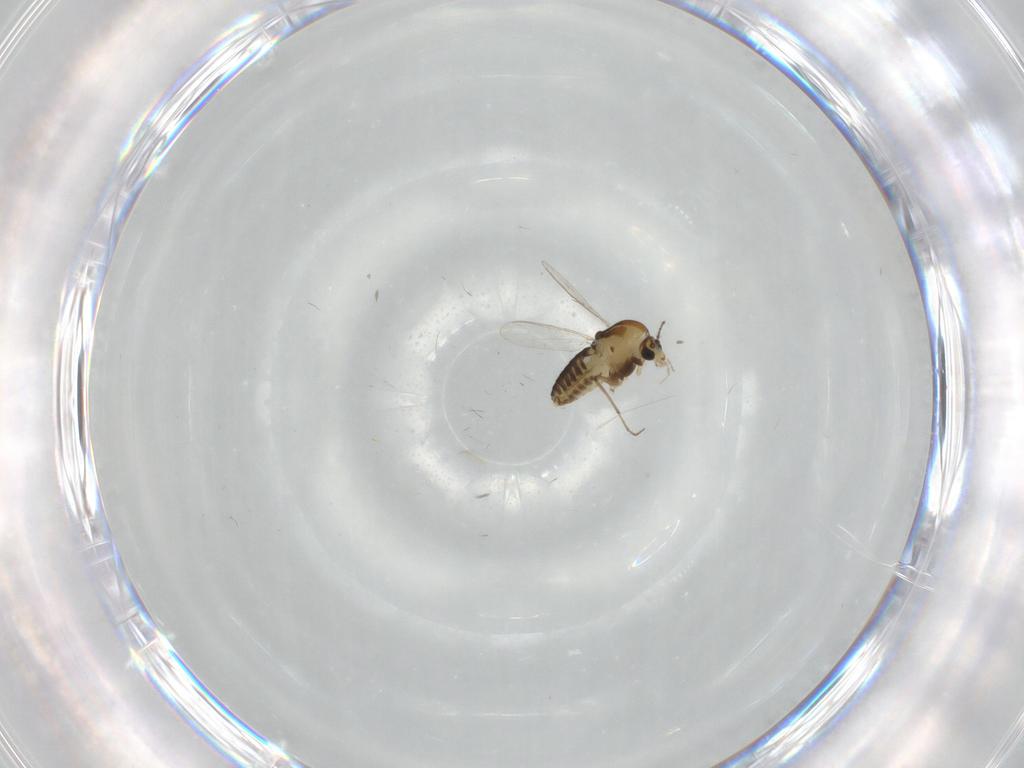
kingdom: Animalia
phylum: Arthropoda
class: Insecta
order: Diptera
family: Chironomidae
